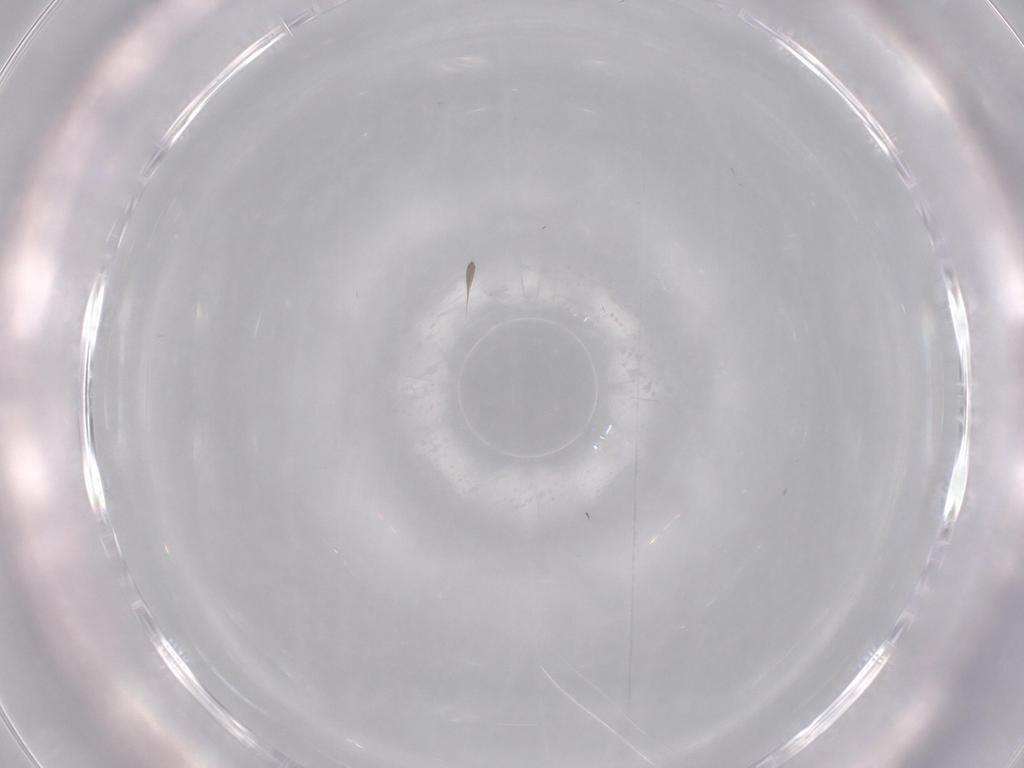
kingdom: Animalia
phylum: Arthropoda
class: Insecta
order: Diptera
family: Cecidomyiidae
